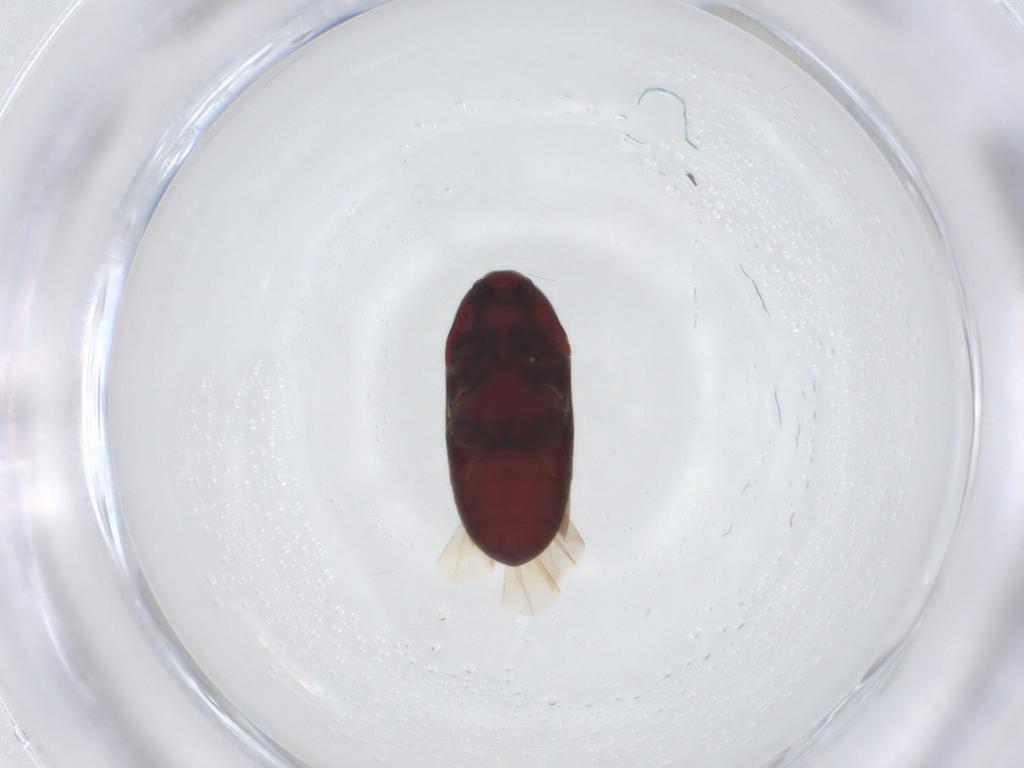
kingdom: Animalia
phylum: Arthropoda
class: Insecta
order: Coleoptera
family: Throscidae
